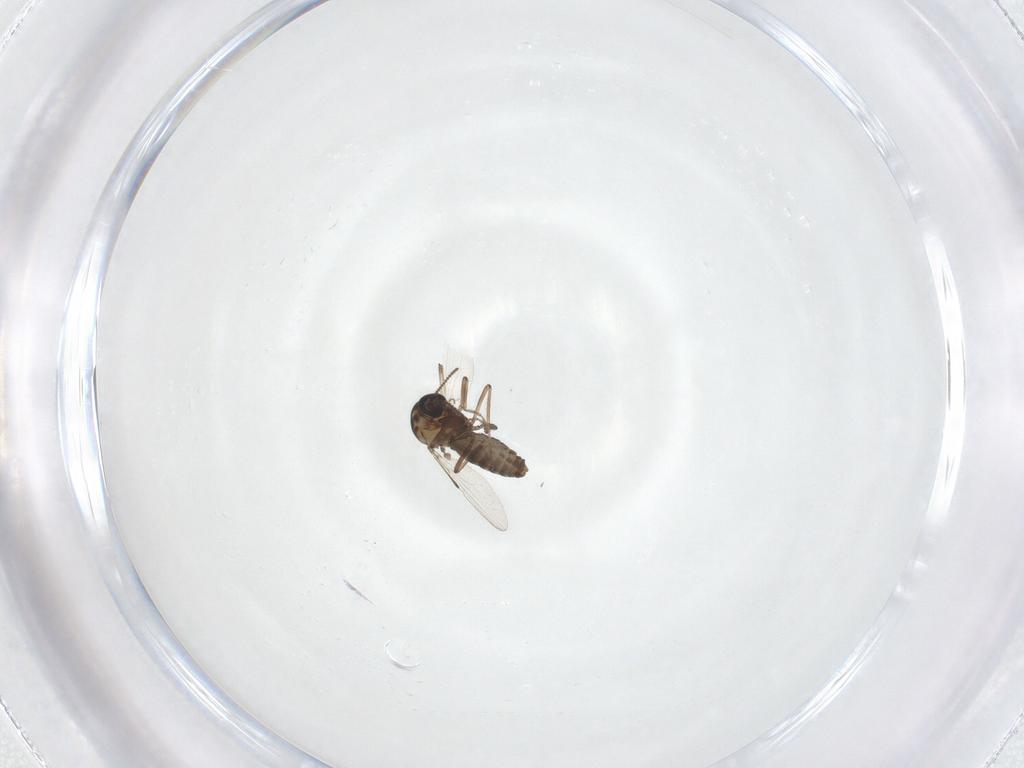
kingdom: Animalia
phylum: Arthropoda
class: Insecta
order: Diptera
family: Ceratopogonidae
